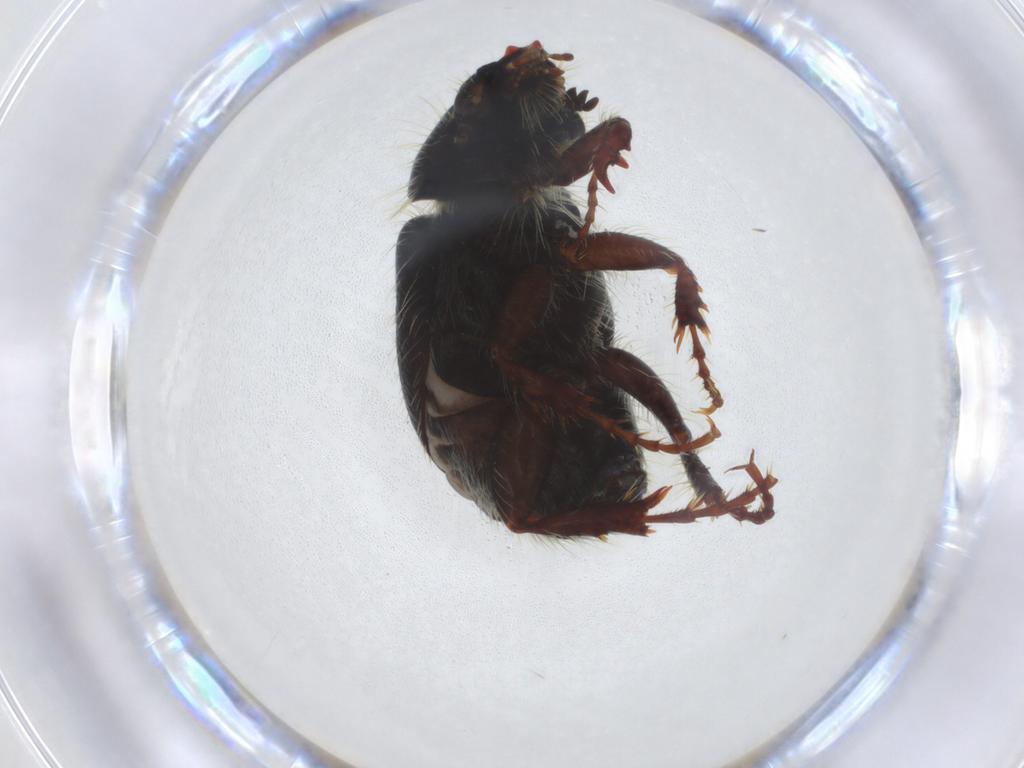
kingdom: Animalia
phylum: Arthropoda
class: Insecta
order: Coleoptera
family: Scarabaeidae
